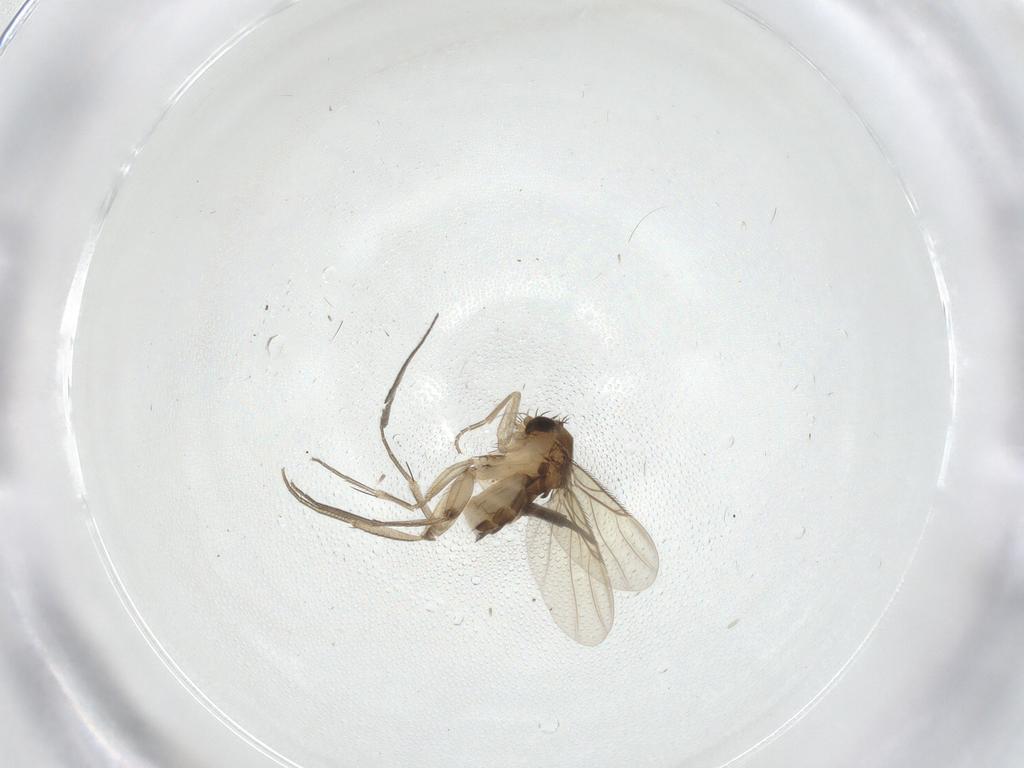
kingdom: Animalia
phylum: Arthropoda
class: Insecta
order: Diptera
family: Phoridae
